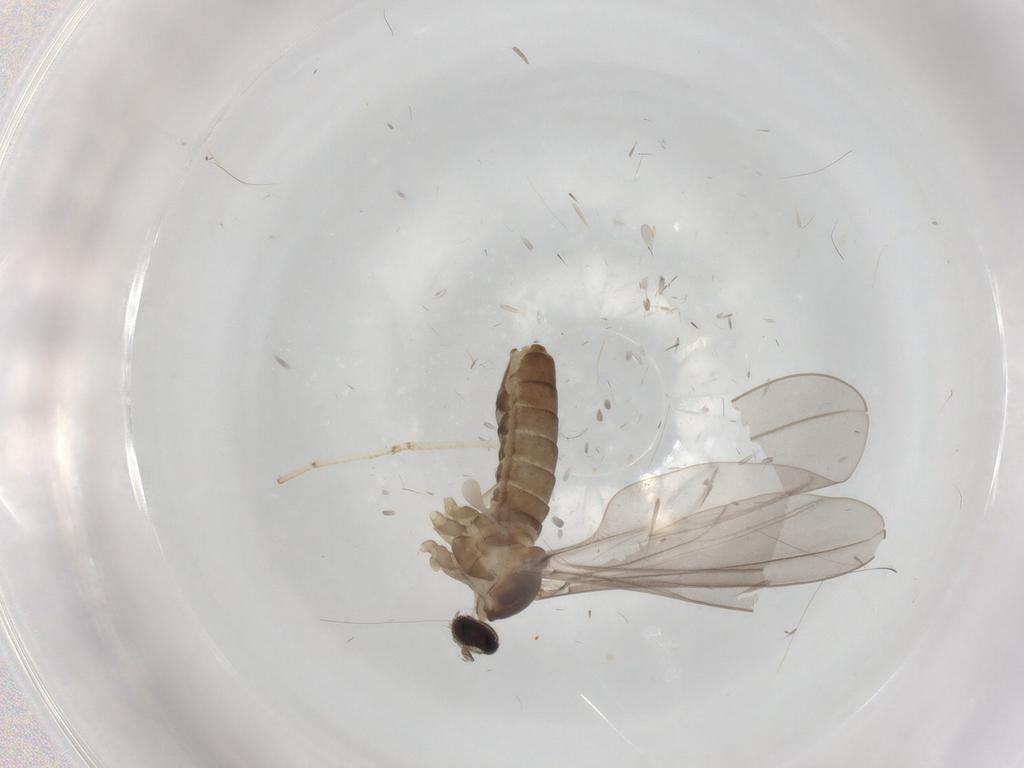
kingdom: Animalia
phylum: Arthropoda
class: Insecta
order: Diptera
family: Cecidomyiidae
